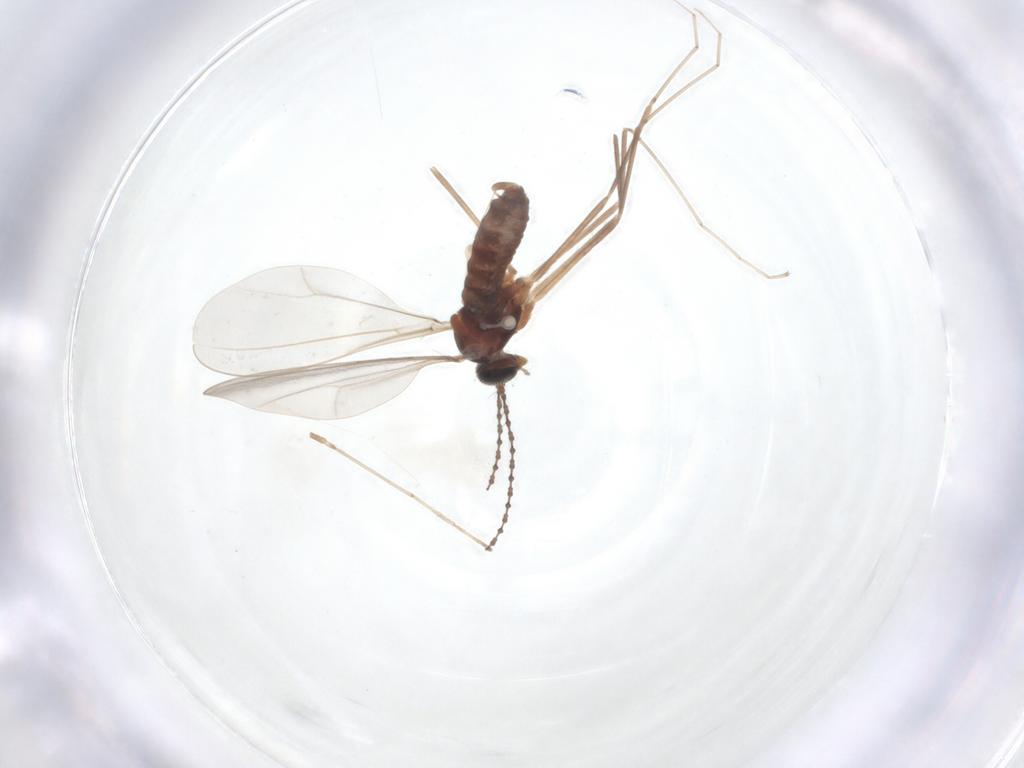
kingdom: Animalia
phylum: Arthropoda
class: Insecta
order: Diptera
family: Cecidomyiidae
